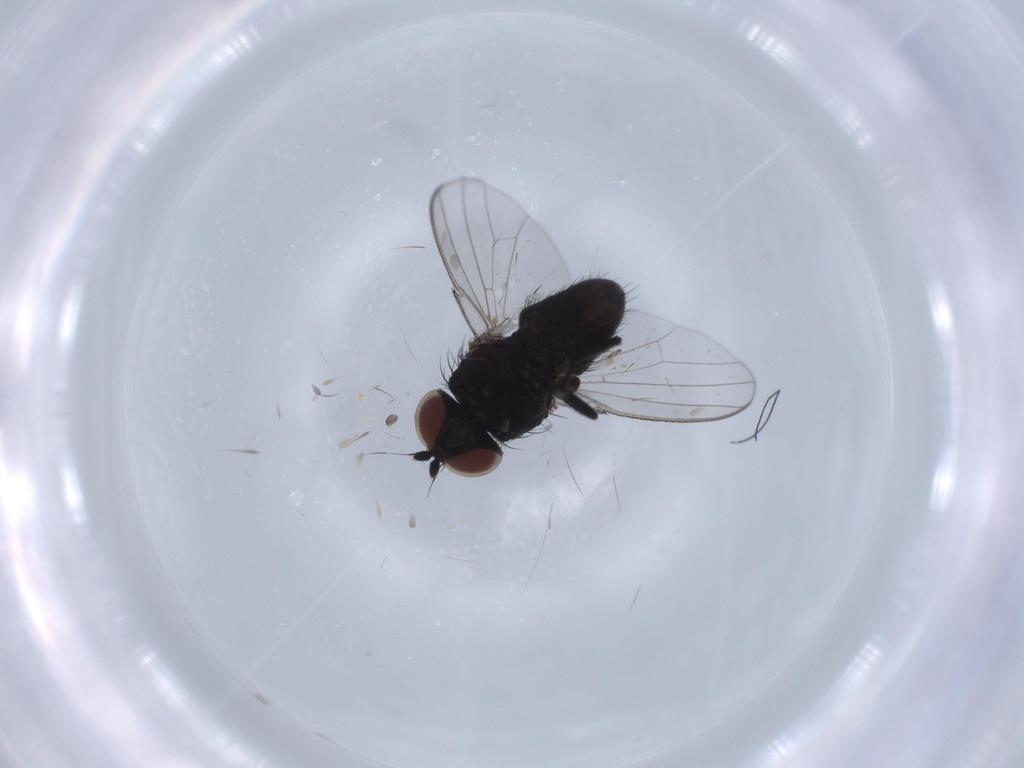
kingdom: Animalia
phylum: Arthropoda
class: Insecta
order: Diptera
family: Milichiidae
